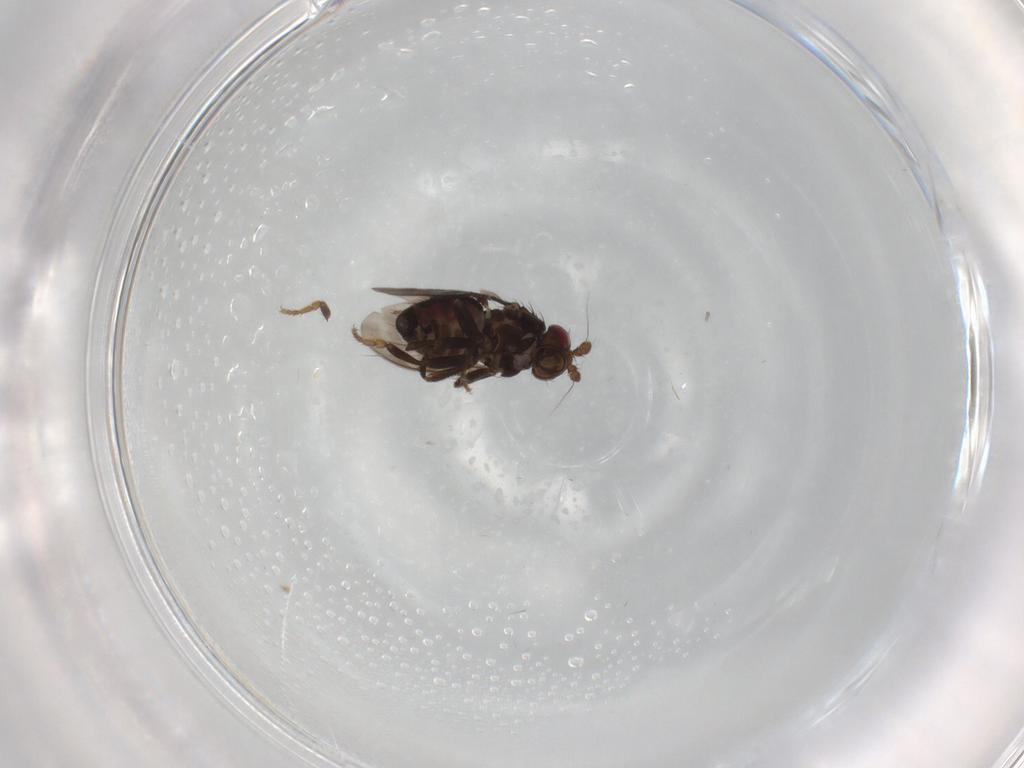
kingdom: Animalia
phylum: Arthropoda
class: Insecta
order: Diptera
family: Sphaeroceridae
